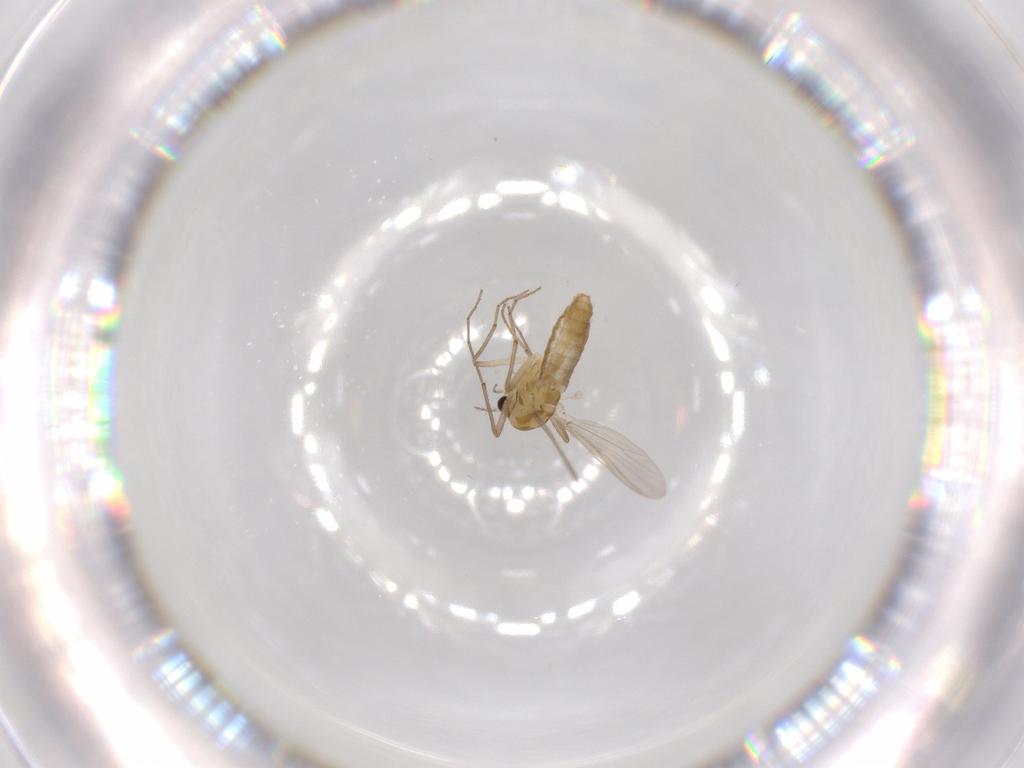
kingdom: Animalia
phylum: Arthropoda
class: Insecta
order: Diptera
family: Chironomidae
